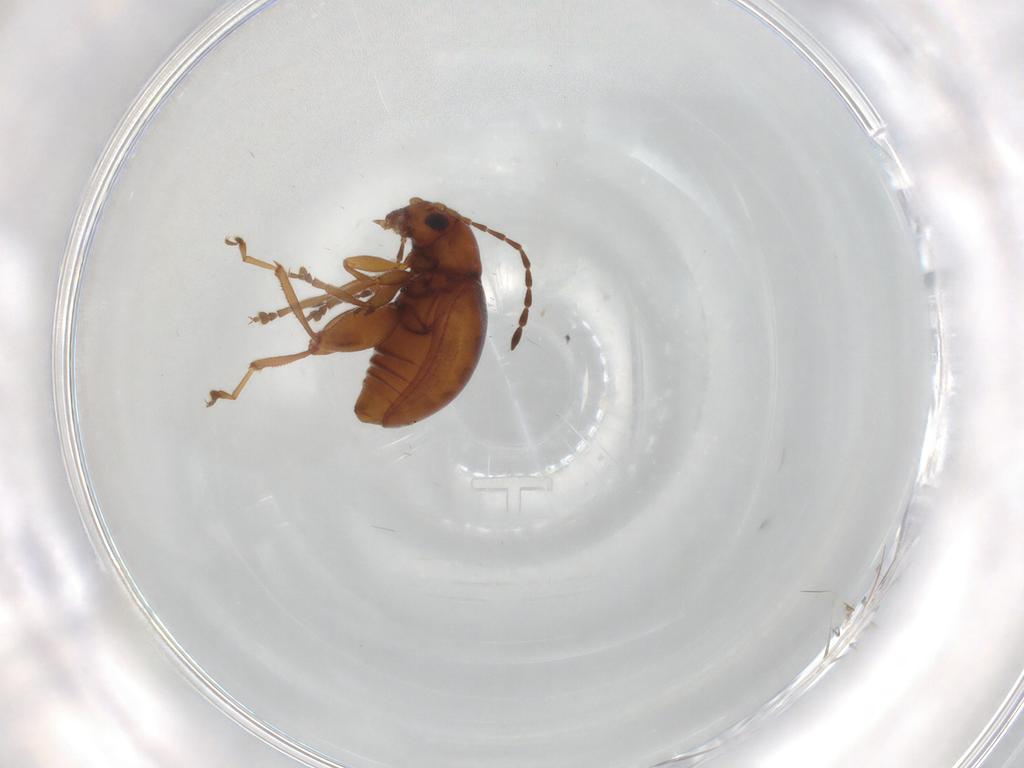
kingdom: Animalia
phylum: Arthropoda
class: Insecta
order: Coleoptera
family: Chrysomelidae
